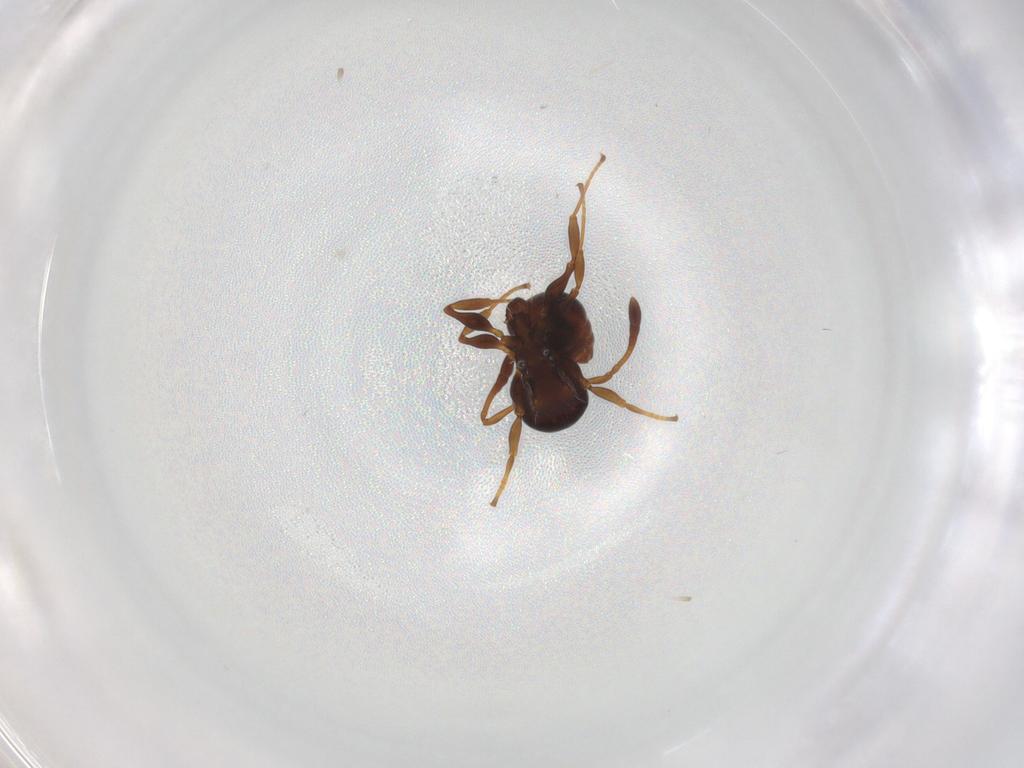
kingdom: Animalia
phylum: Arthropoda
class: Insecta
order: Hymenoptera
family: Formicidae
